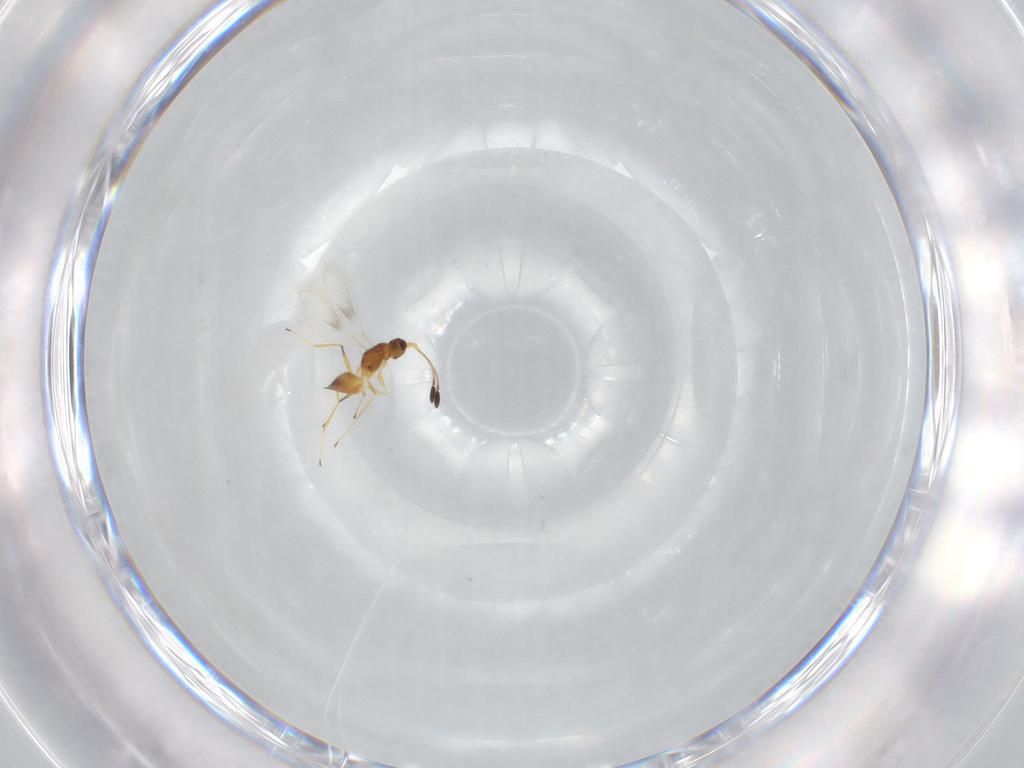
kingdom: Animalia
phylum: Arthropoda
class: Insecta
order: Hymenoptera
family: Mymaridae
